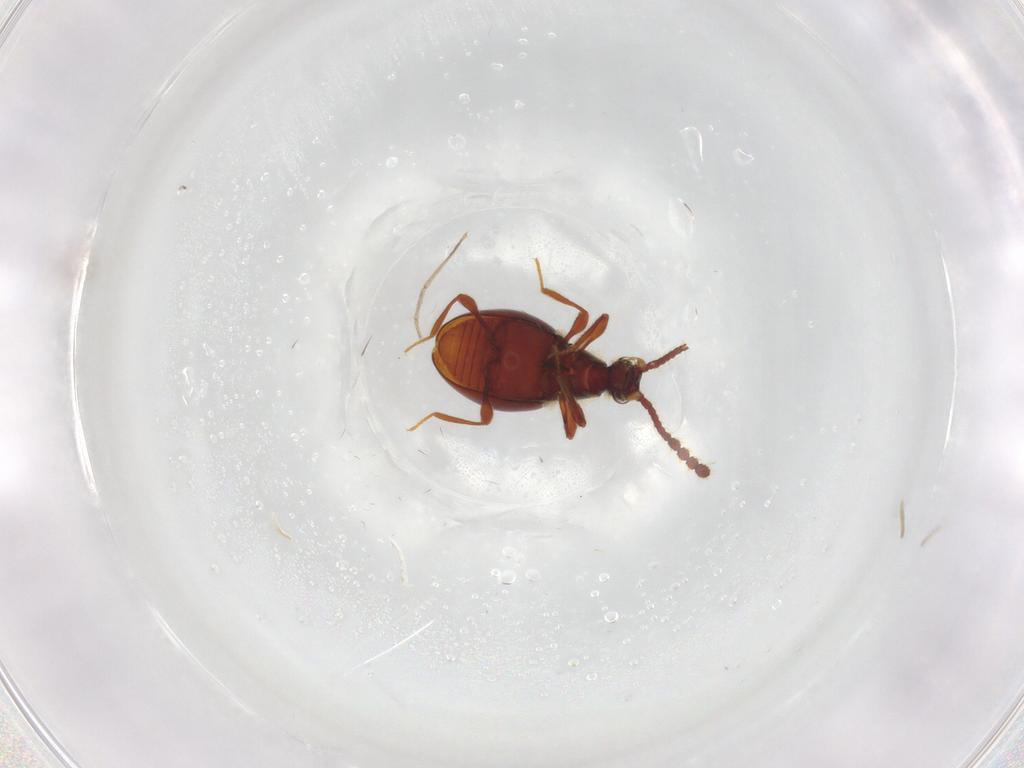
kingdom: Animalia
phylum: Arthropoda
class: Insecta
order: Coleoptera
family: Staphylinidae
